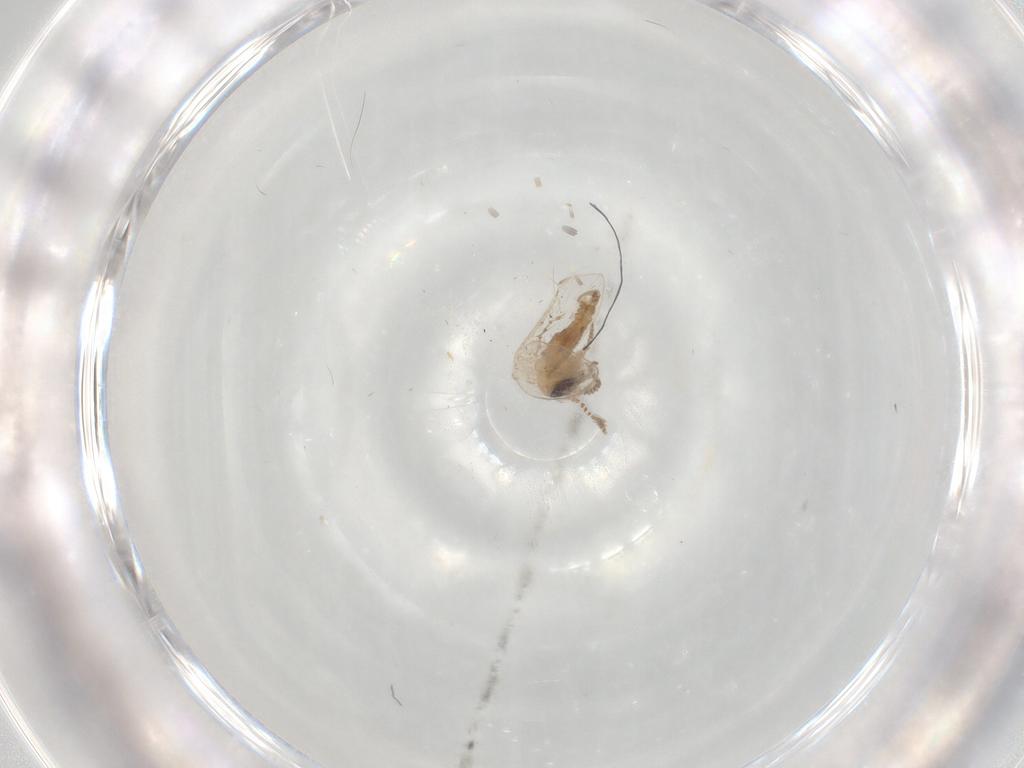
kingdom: Animalia
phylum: Arthropoda
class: Insecta
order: Diptera
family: Psychodidae
